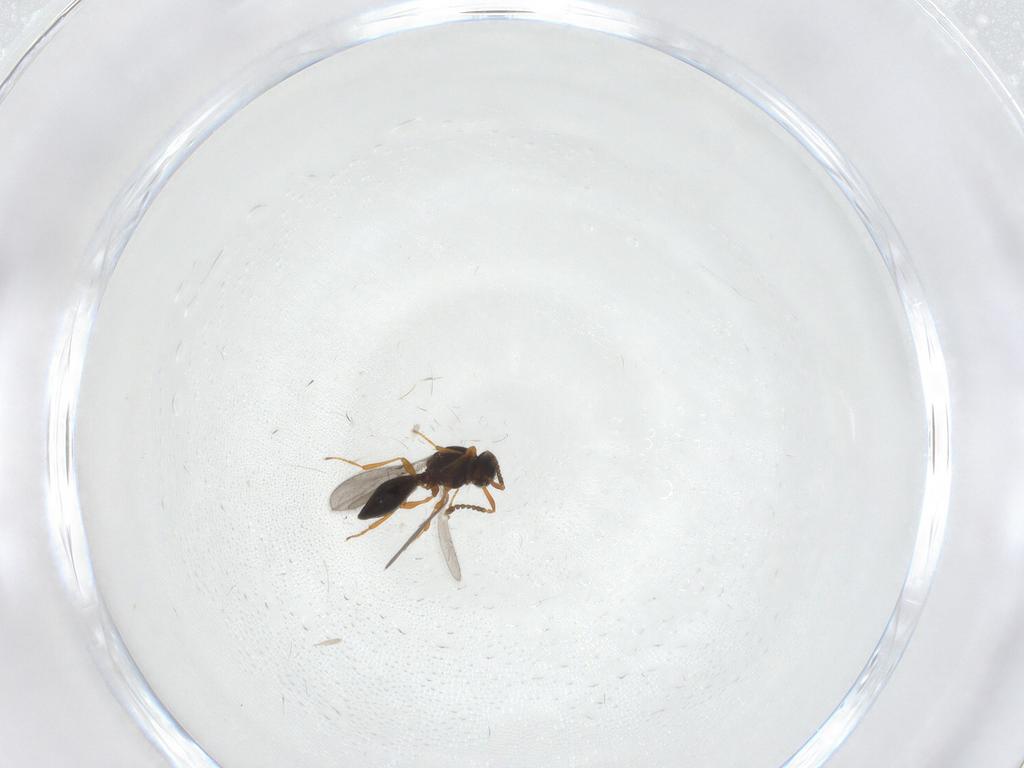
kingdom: Animalia
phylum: Arthropoda
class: Insecta
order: Hymenoptera
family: Platygastridae
